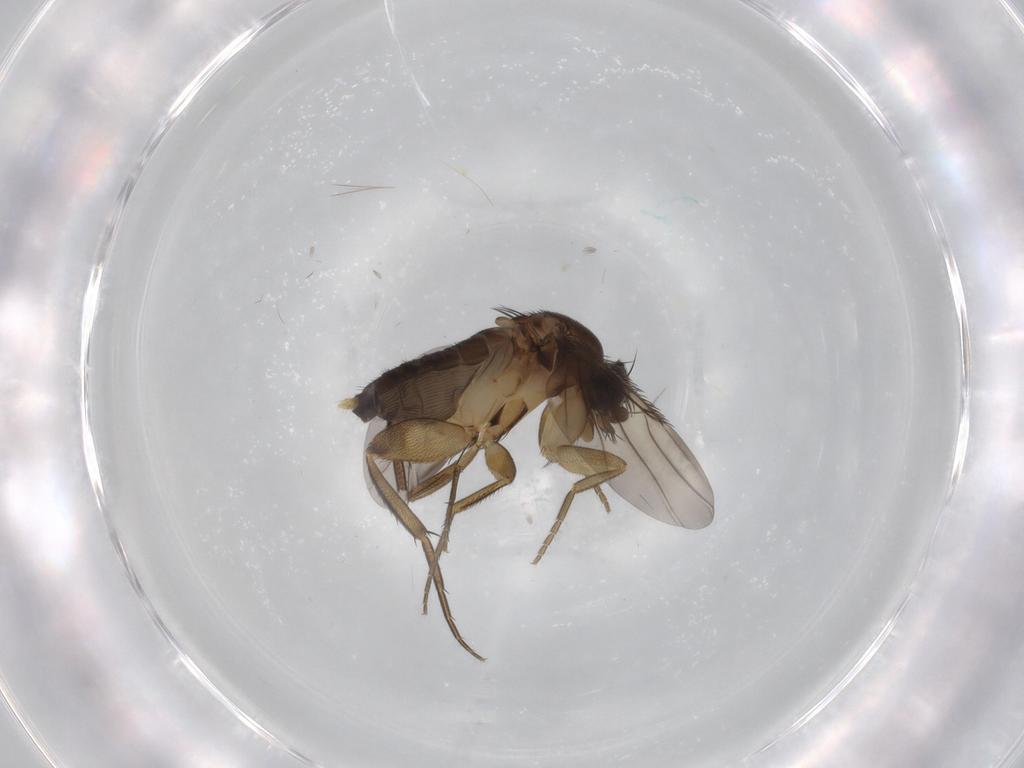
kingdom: Animalia
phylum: Arthropoda
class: Insecta
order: Diptera
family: Phoridae
